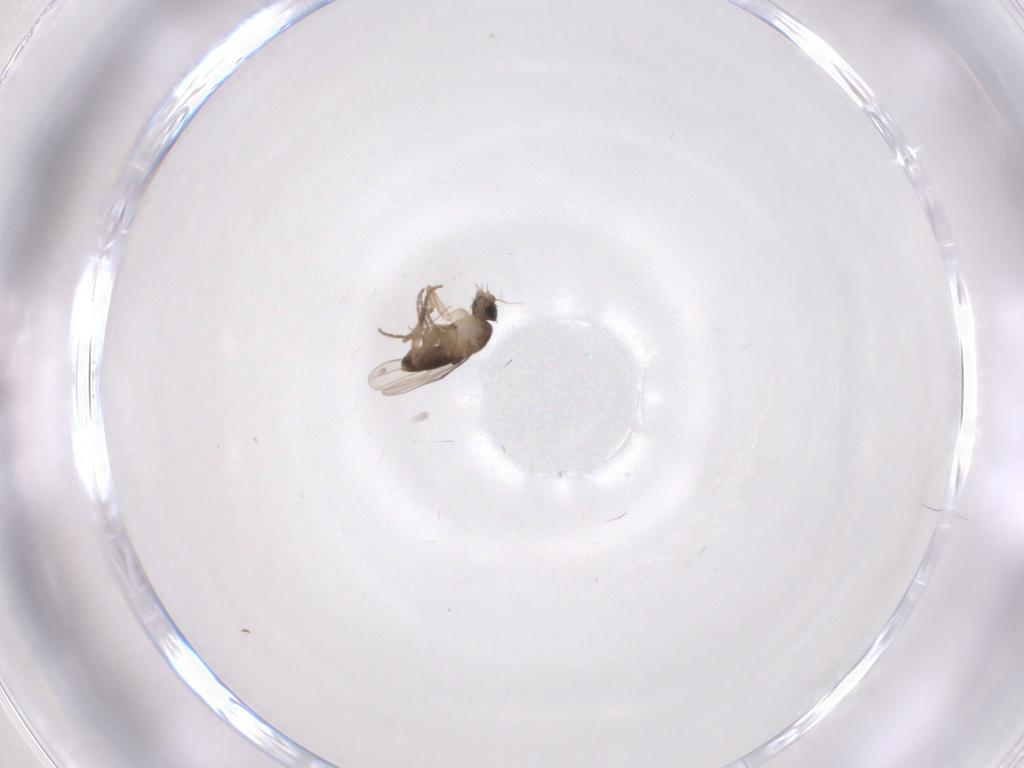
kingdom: Animalia
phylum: Arthropoda
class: Insecta
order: Diptera
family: Phoridae
